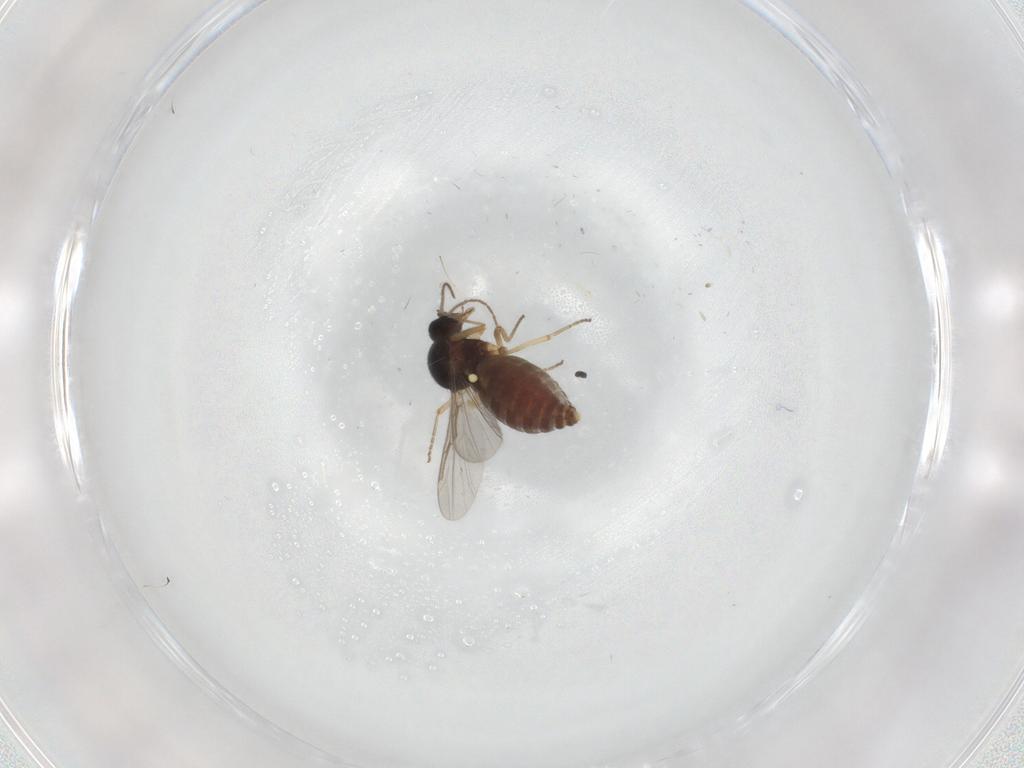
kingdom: Animalia
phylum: Arthropoda
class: Insecta
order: Diptera
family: Ceratopogonidae
